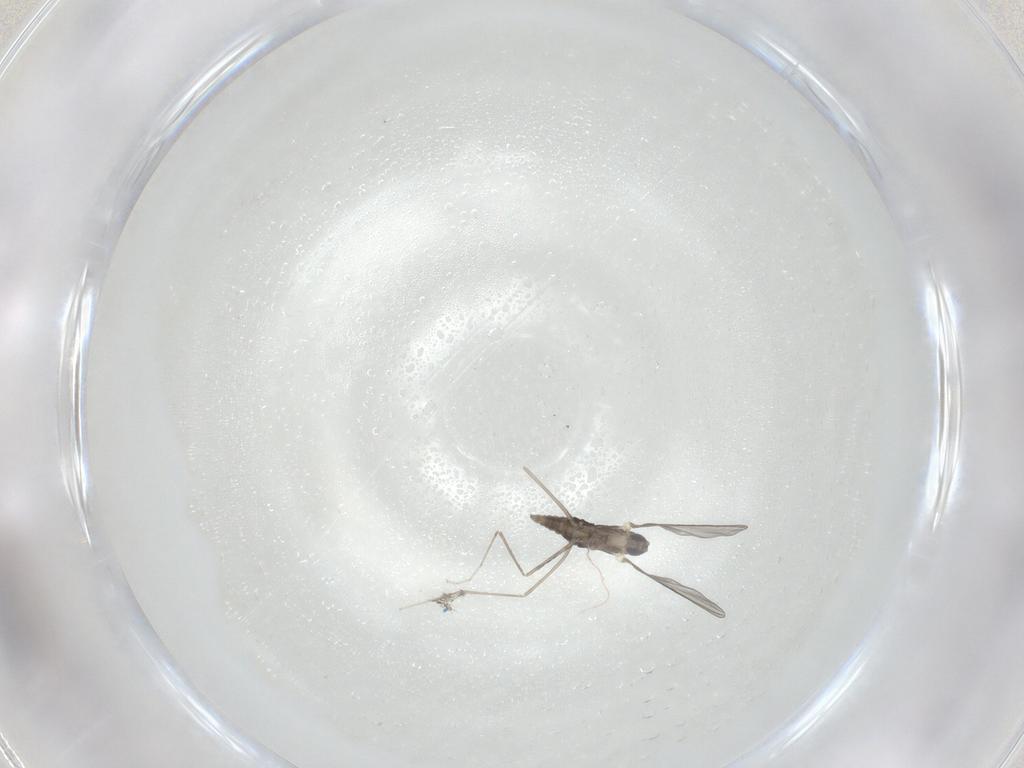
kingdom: Animalia
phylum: Arthropoda
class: Insecta
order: Diptera
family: Cecidomyiidae
